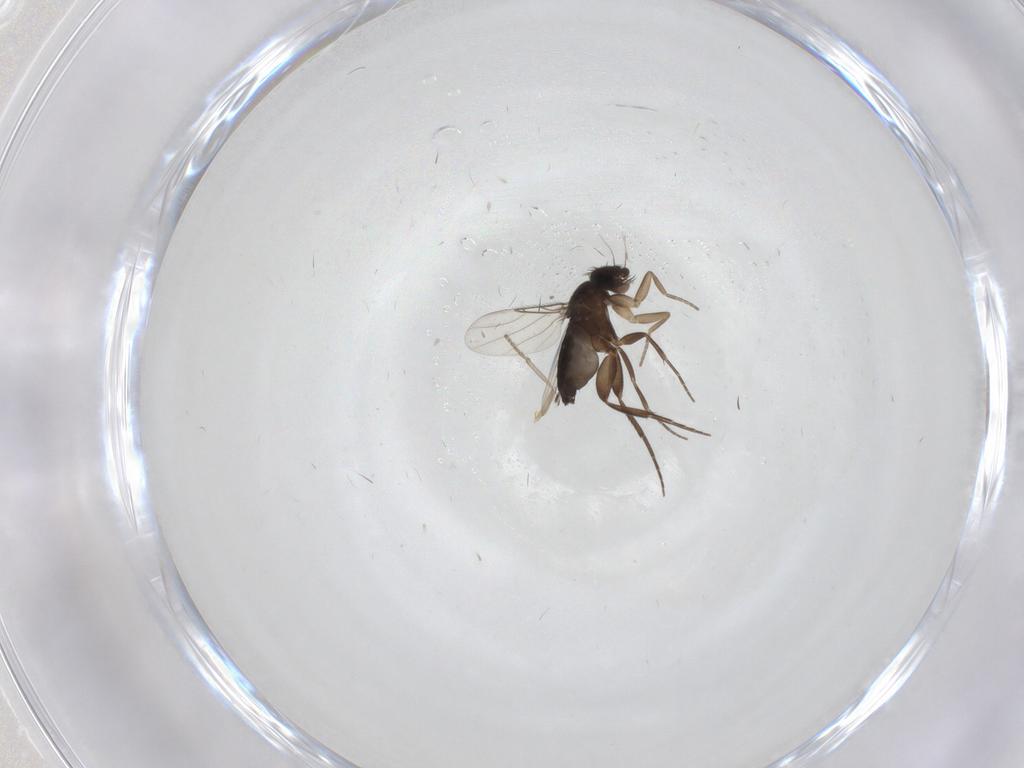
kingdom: Animalia
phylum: Arthropoda
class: Insecta
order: Diptera
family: Phoridae
